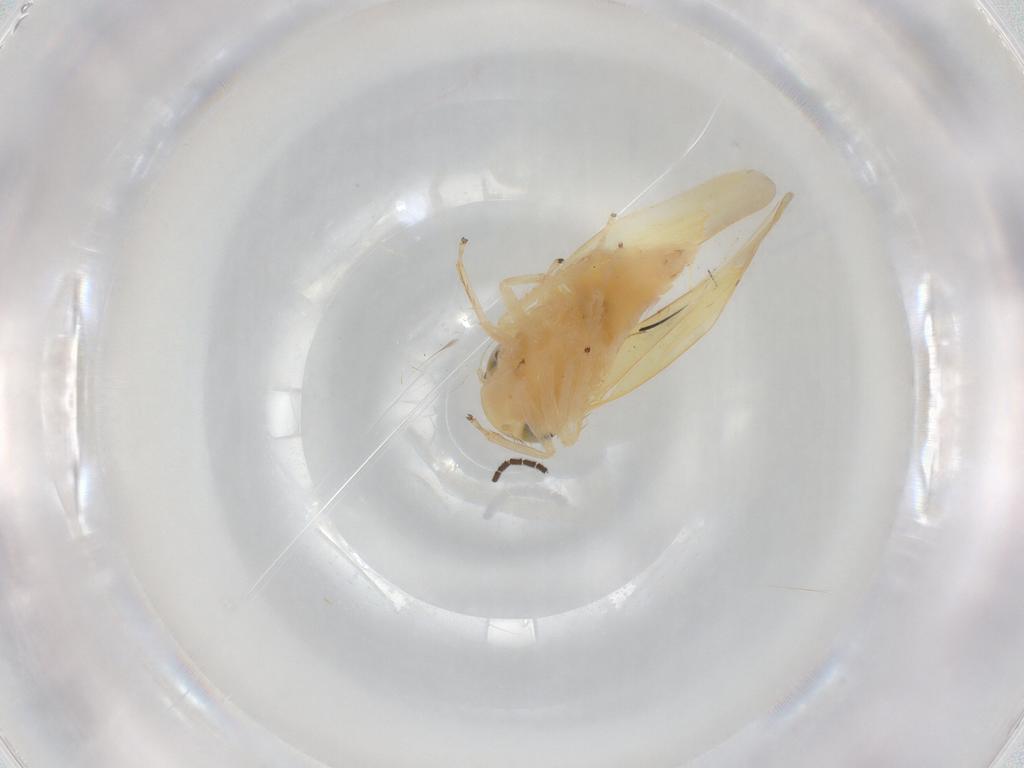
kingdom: Animalia
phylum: Arthropoda
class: Insecta
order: Hemiptera
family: Cicadellidae
